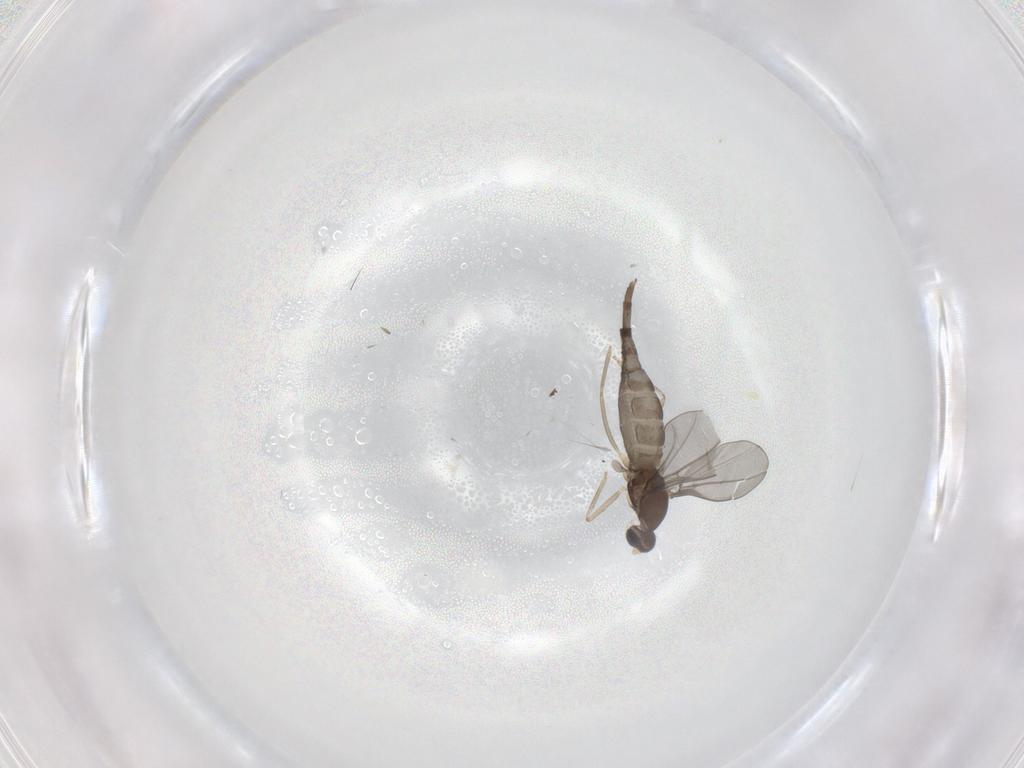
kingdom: Animalia
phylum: Arthropoda
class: Insecta
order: Diptera
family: Cecidomyiidae
